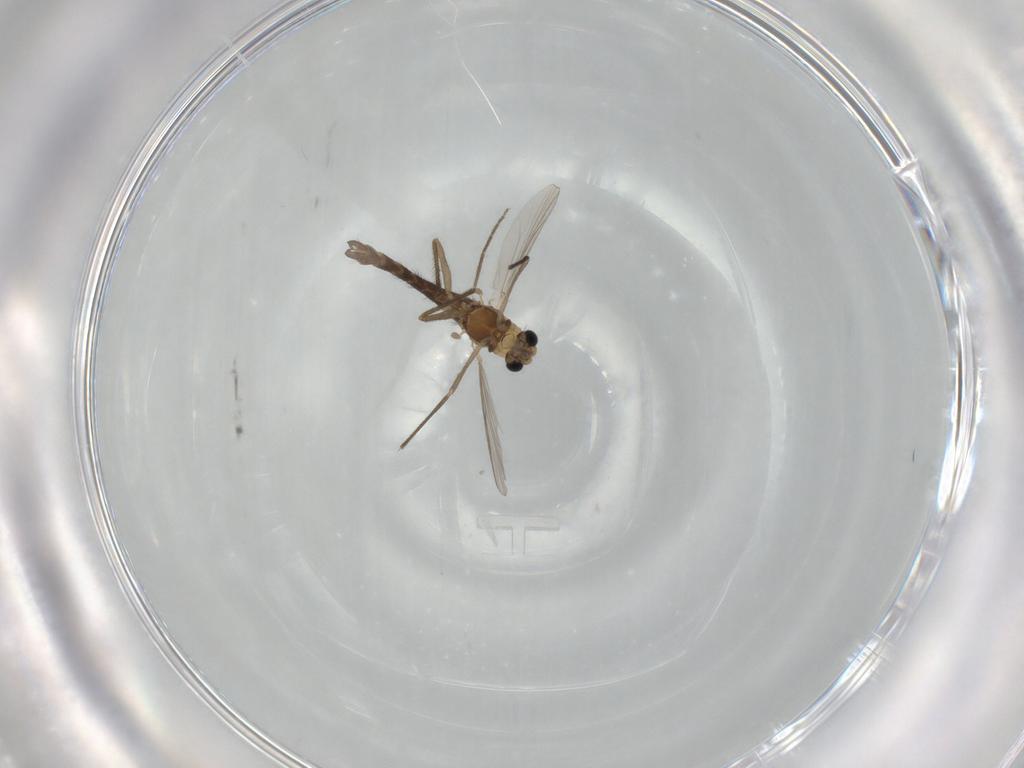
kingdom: Animalia
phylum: Arthropoda
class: Insecta
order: Diptera
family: Chironomidae
